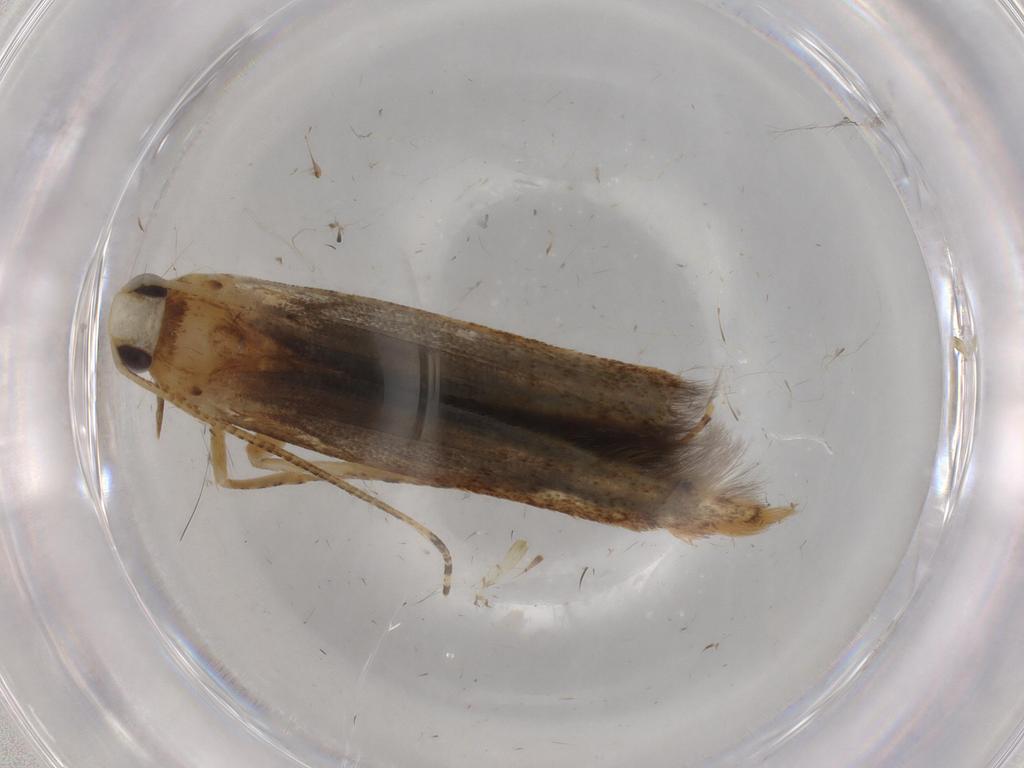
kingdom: Animalia
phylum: Arthropoda
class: Insecta
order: Lepidoptera
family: Batrachedridae
